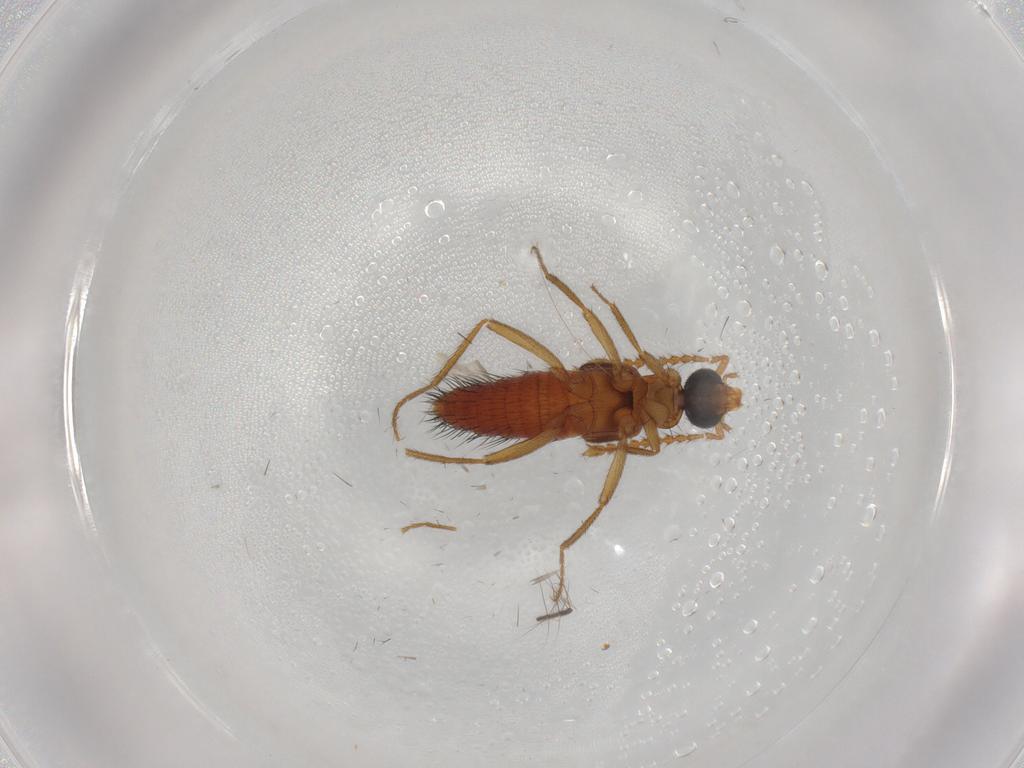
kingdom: Animalia
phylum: Arthropoda
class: Insecta
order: Coleoptera
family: Staphylinidae
